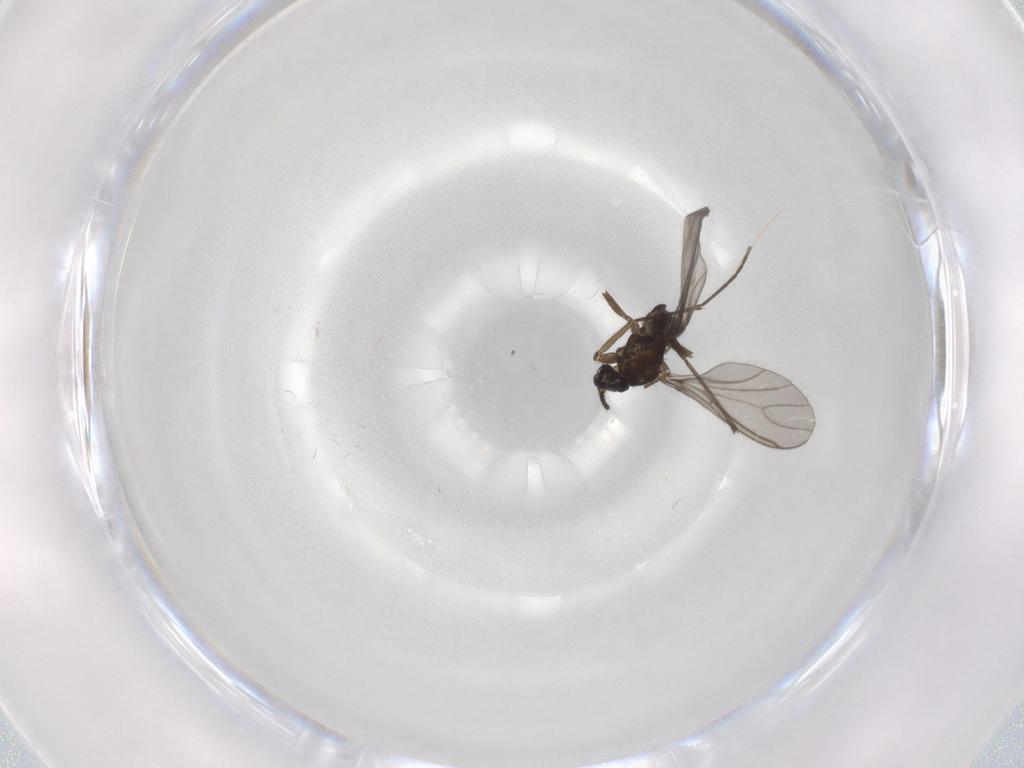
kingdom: Animalia
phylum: Arthropoda
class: Insecta
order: Diptera
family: Sciaridae
